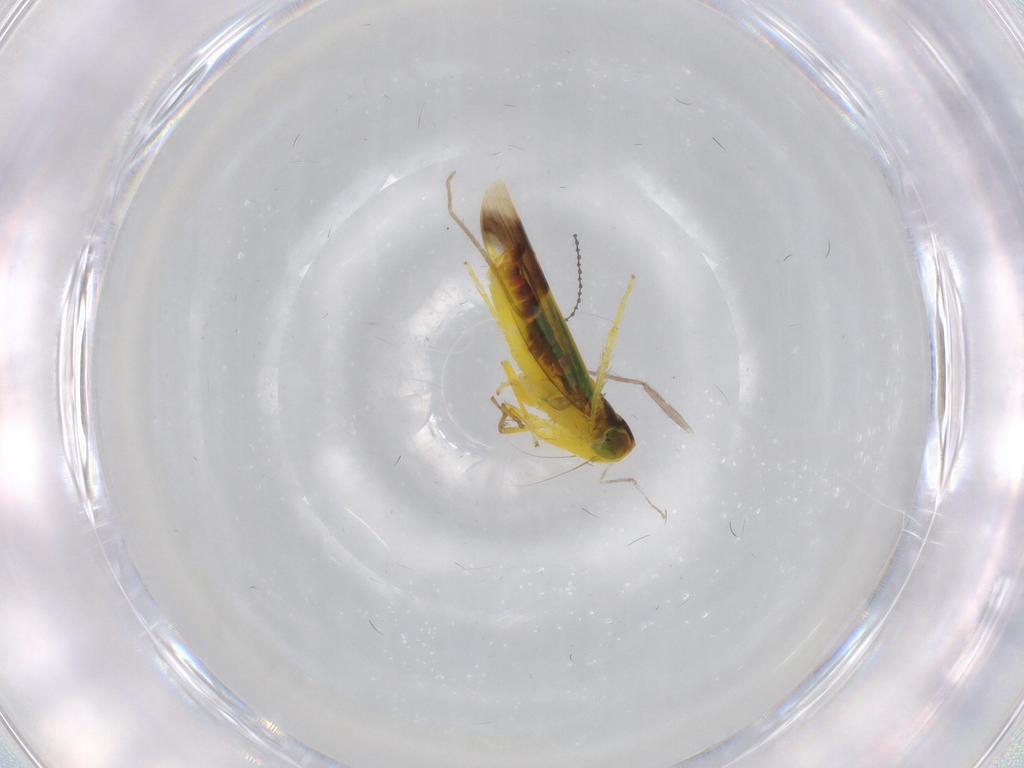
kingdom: Animalia
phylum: Arthropoda
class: Insecta
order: Hemiptera
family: Cicadellidae
